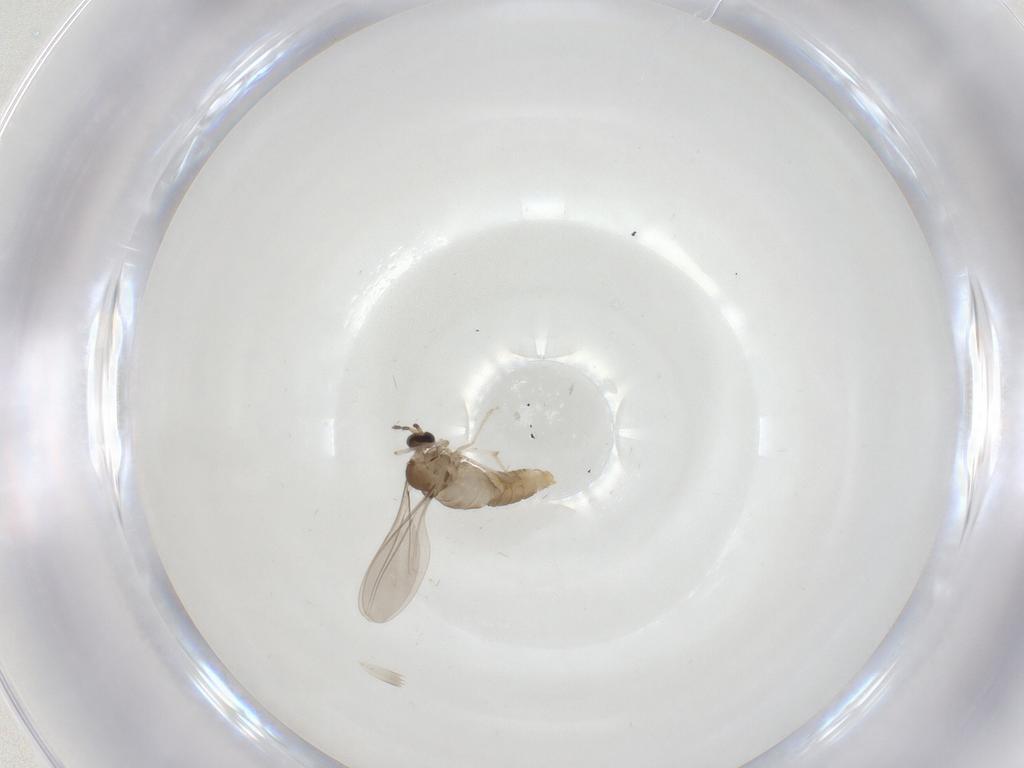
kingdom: Animalia
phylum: Arthropoda
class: Insecta
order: Diptera
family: Cecidomyiidae
